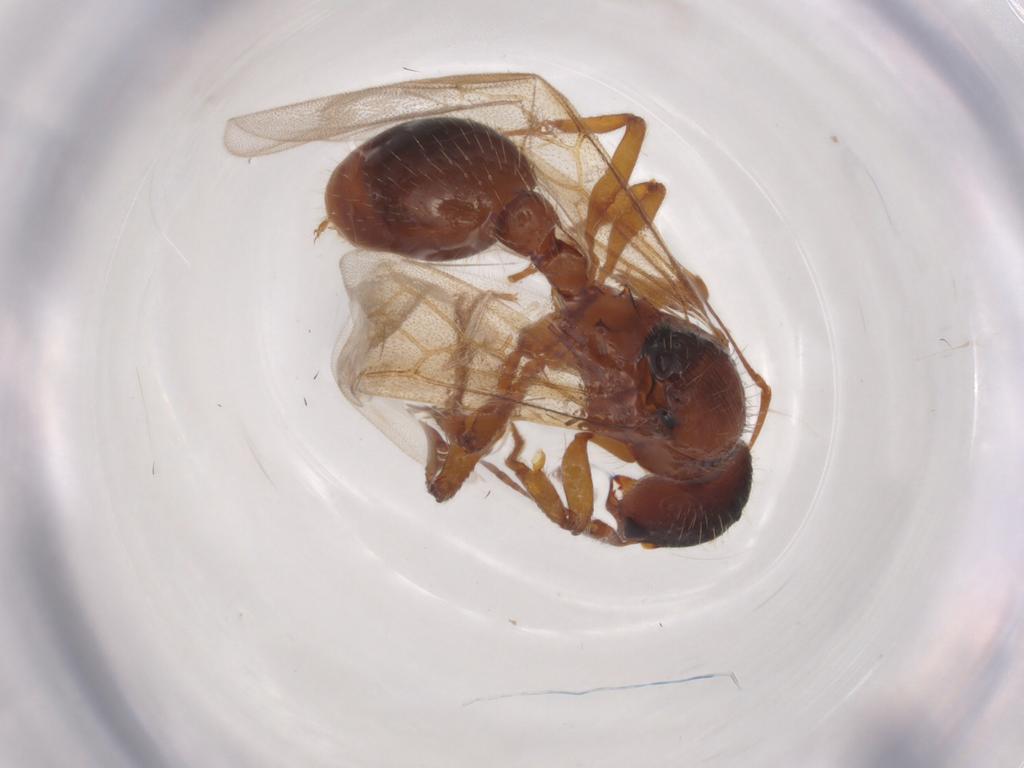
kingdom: Animalia
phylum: Arthropoda
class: Insecta
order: Hymenoptera
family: Formicidae
